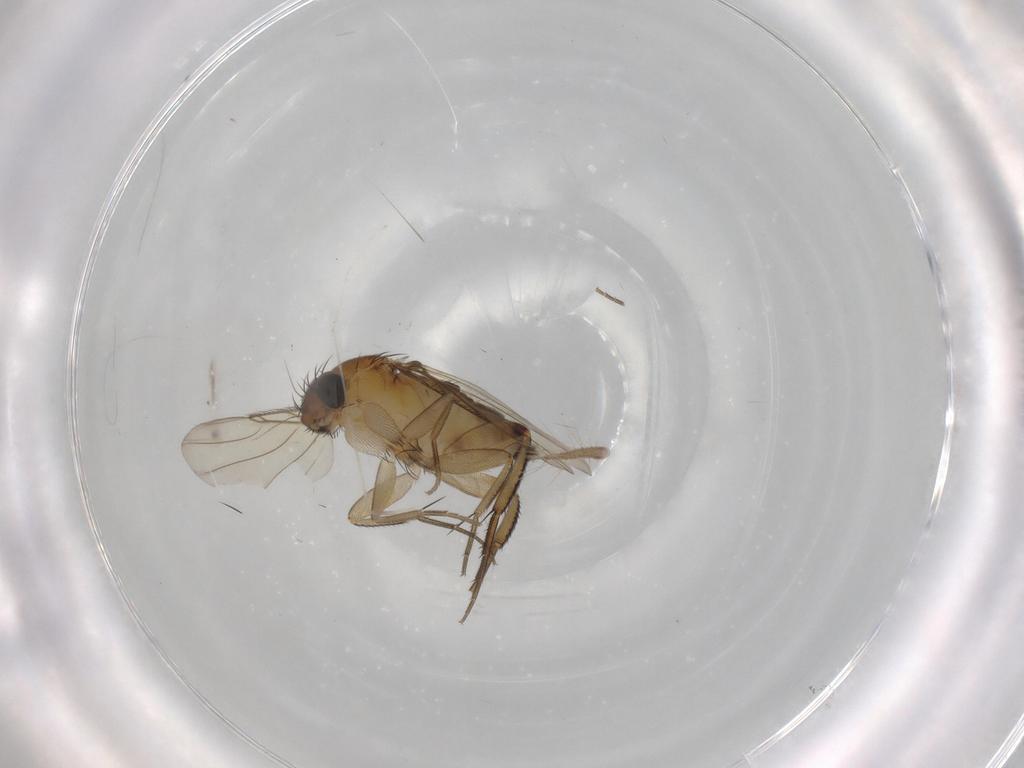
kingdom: Animalia
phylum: Arthropoda
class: Insecta
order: Diptera
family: Phoridae
